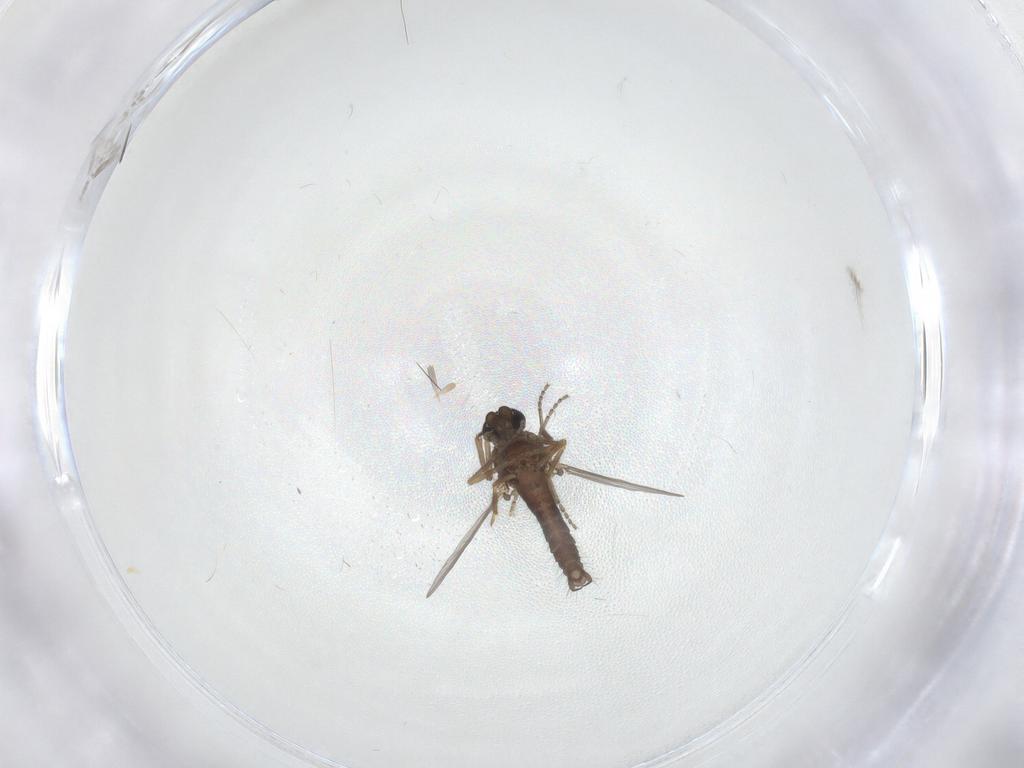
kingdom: Animalia
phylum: Arthropoda
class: Insecta
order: Diptera
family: Ceratopogonidae
